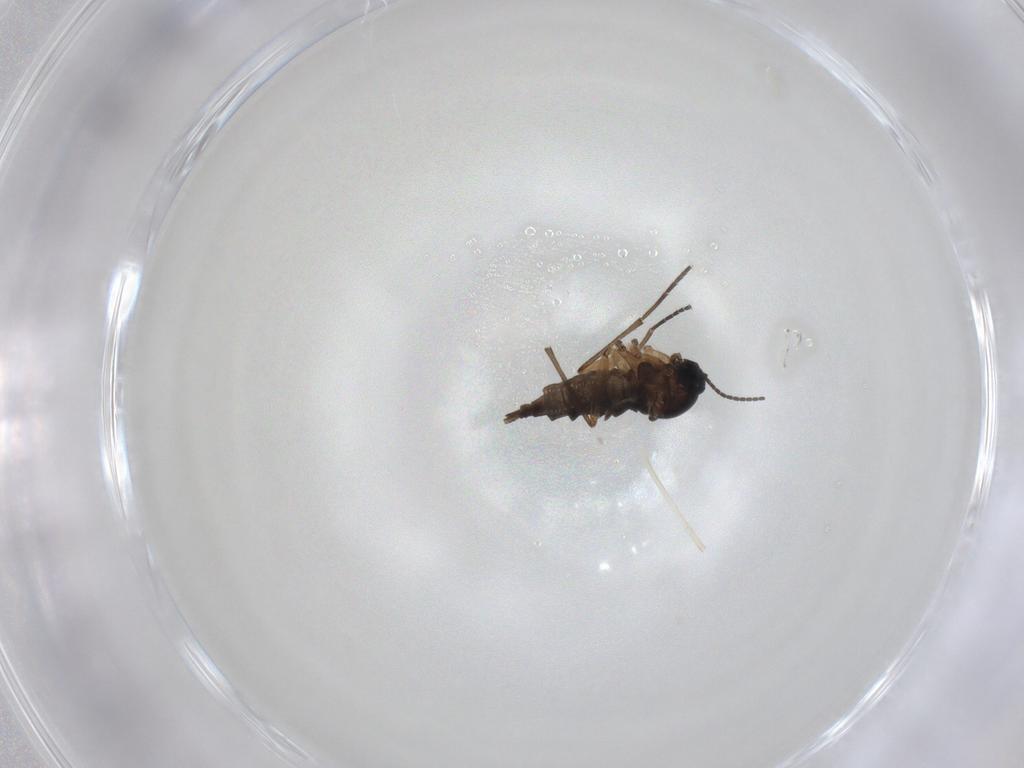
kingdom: Animalia
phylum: Arthropoda
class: Insecta
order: Diptera
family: Sciaridae
